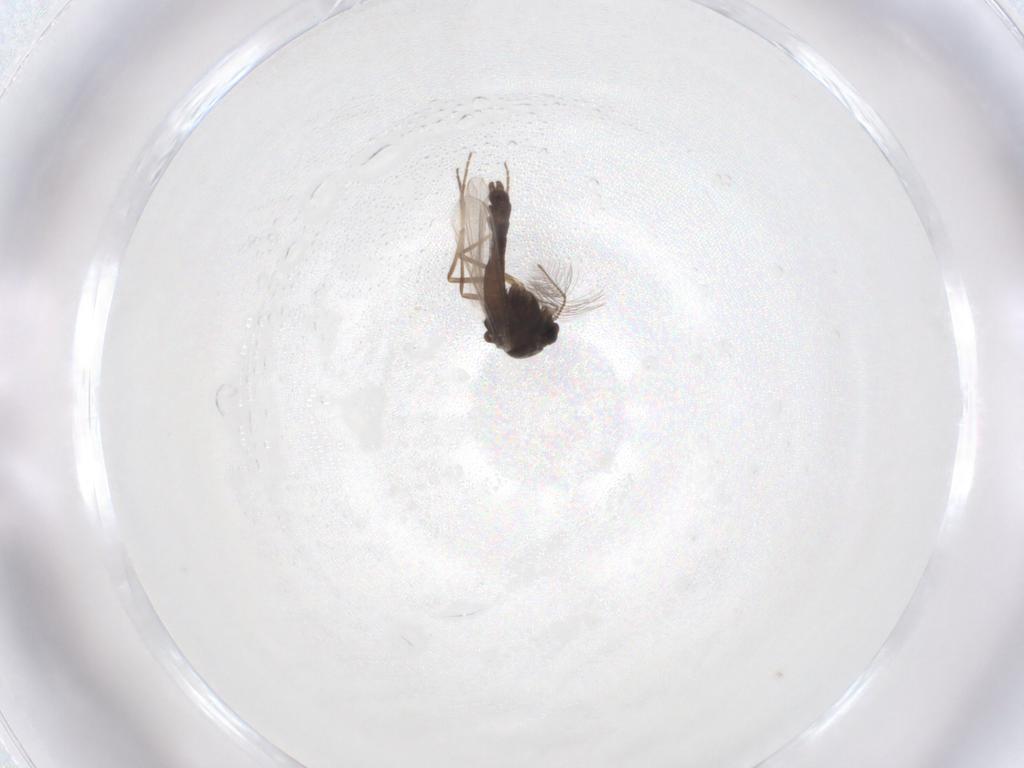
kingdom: Animalia
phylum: Arthropoda
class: Insecta
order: Diptera
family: Chironomidae
